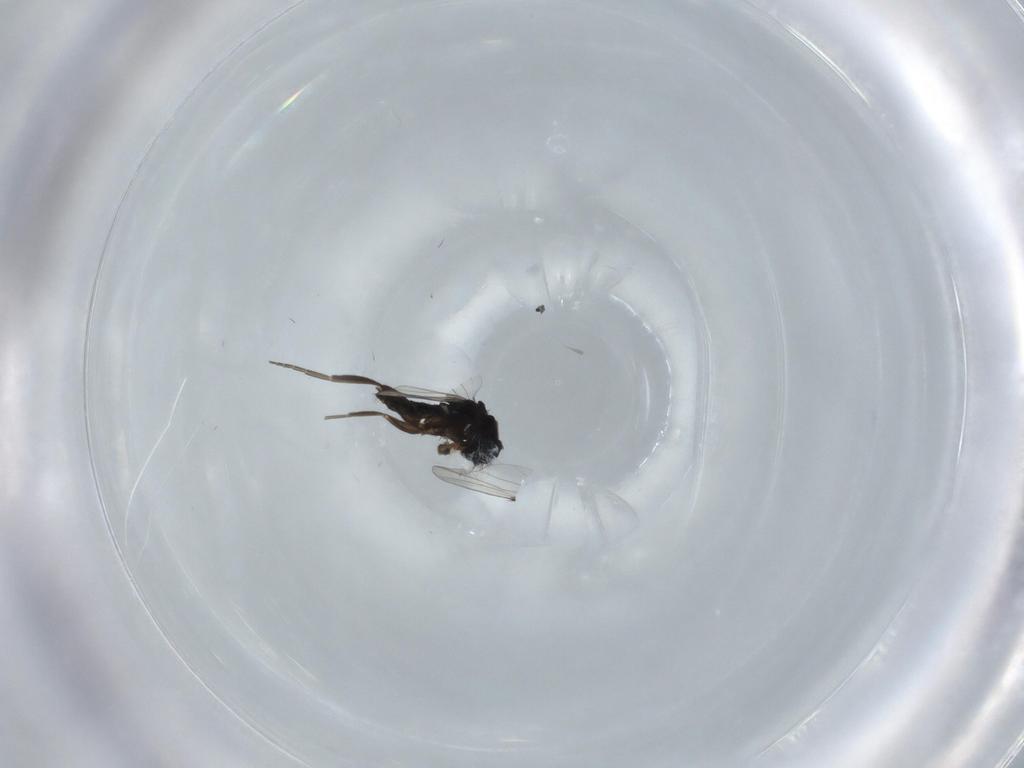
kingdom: Animalia
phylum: Arthropoda
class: Insecta
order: Diptera
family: Phoridae
